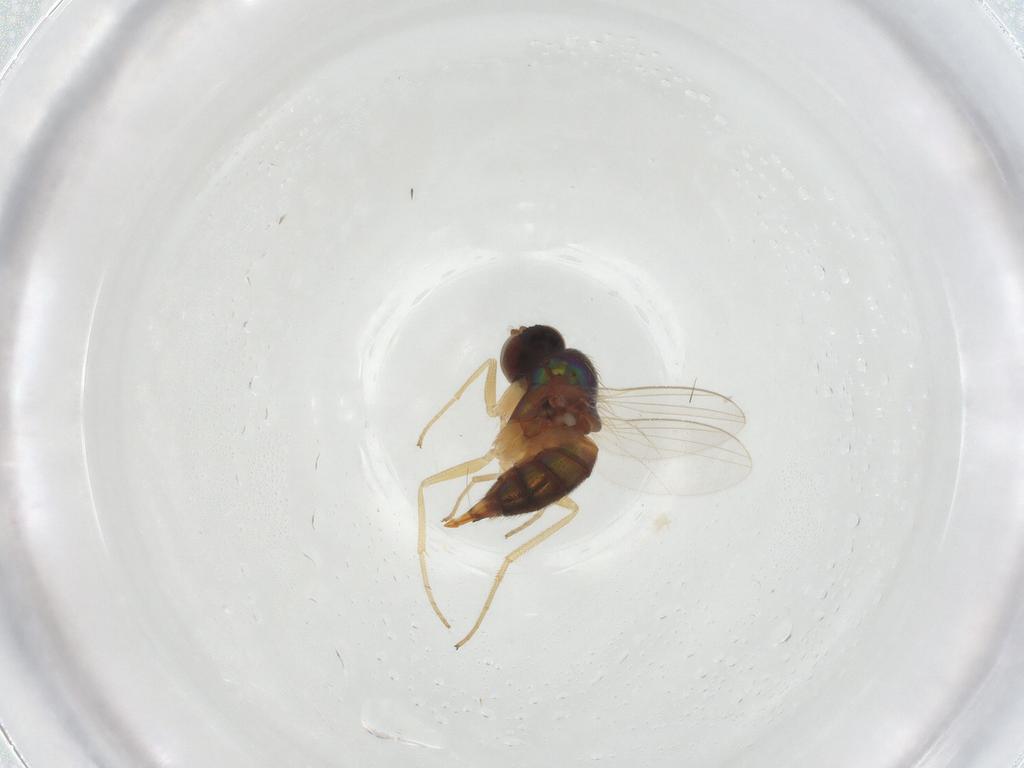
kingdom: Animalia
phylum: Arthropoda
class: Insecta
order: Diptera
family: Dolichopodidae
